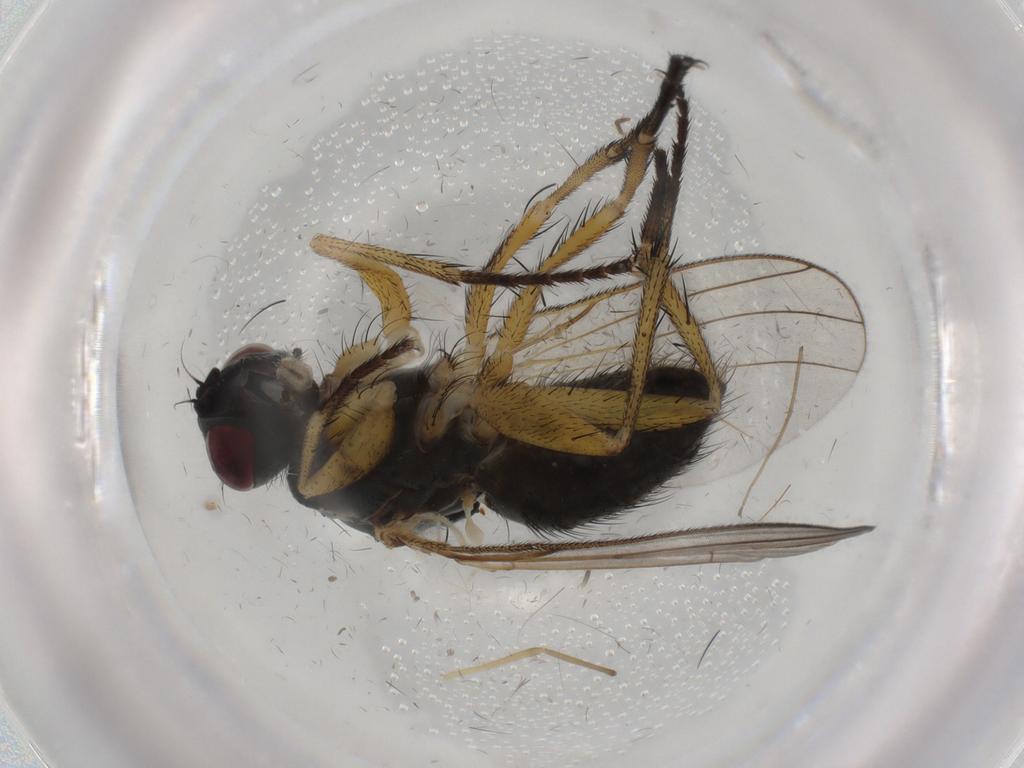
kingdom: Animalia
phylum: Arthropoda
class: Insecta
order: Diptera
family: Muscidae
